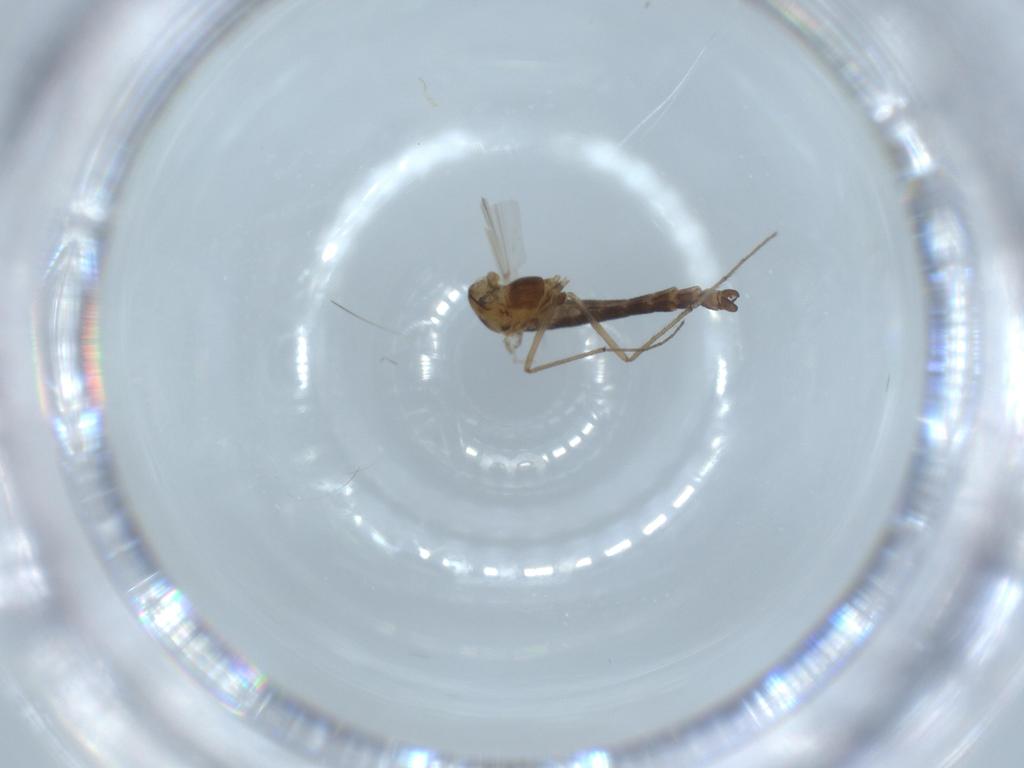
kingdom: Animalia
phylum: Arthropoda
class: Insecta
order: Diptera
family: Chironomidae
